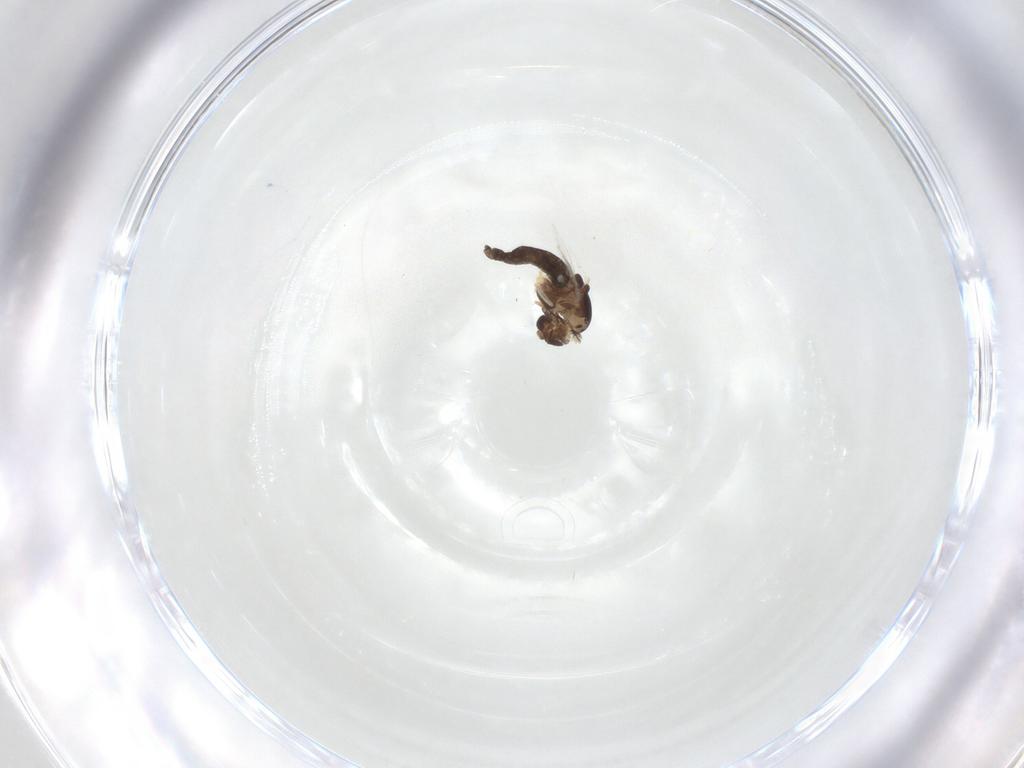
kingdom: Animalia
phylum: Arthropoda
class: Insecta
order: Diptera
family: Chironomidae
